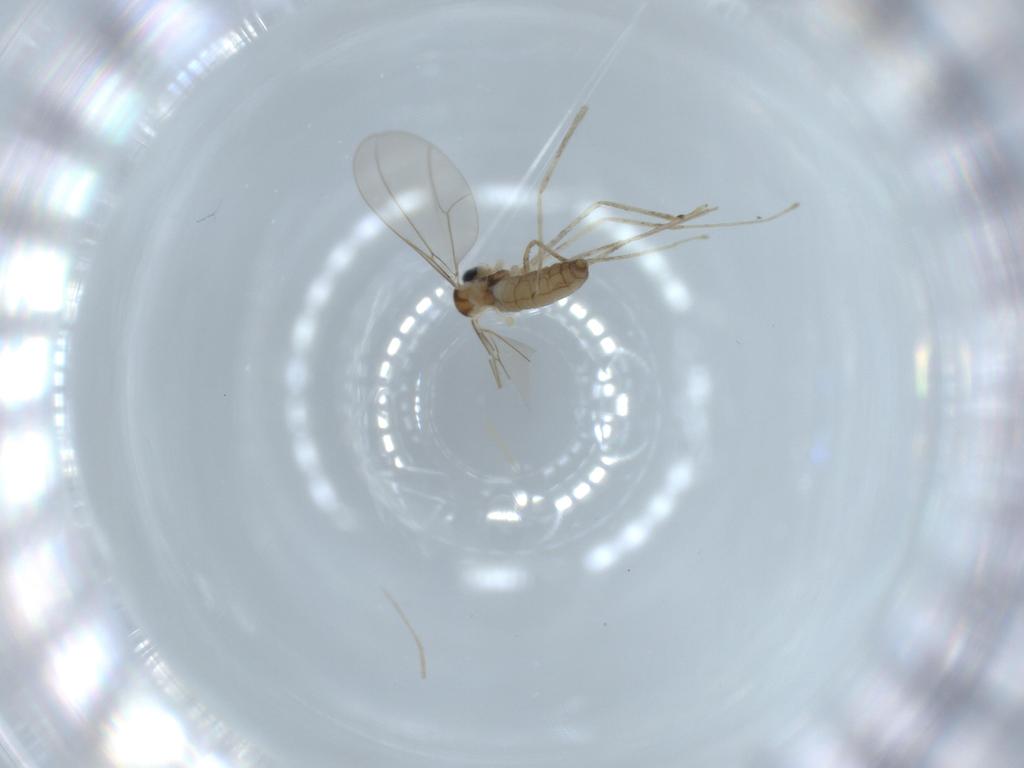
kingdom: Animalia
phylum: Arthropoda
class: Insecta
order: Diptera
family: Cecidomyiidae
